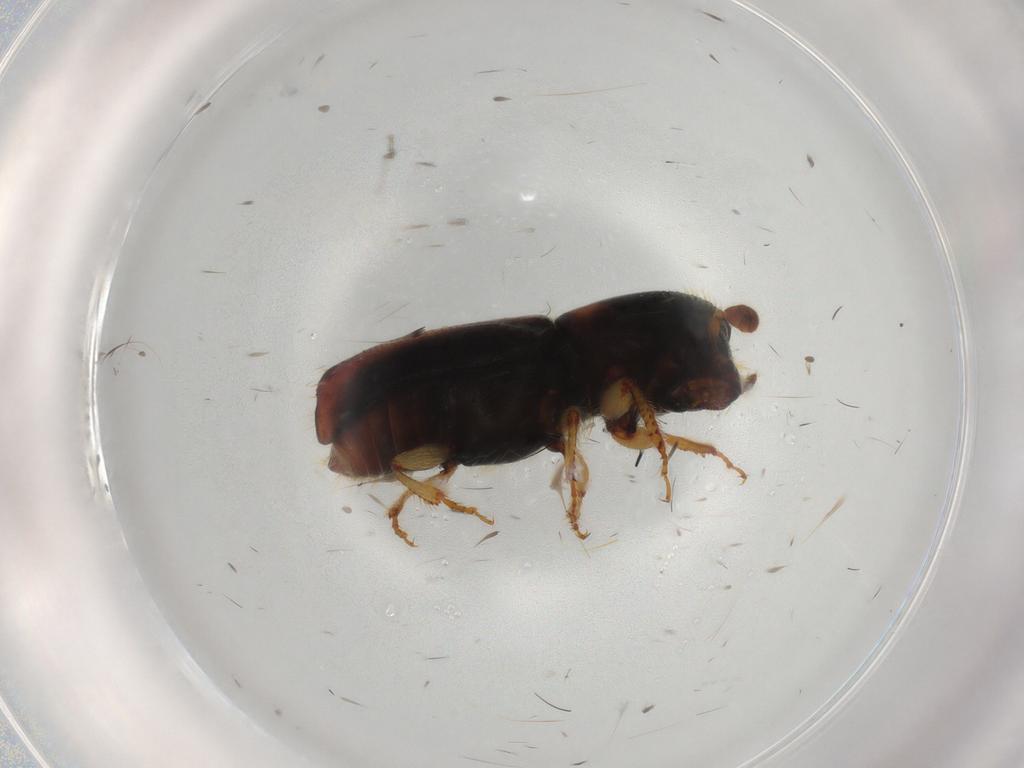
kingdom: Animalia
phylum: Arthropoda
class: Insecta
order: Coleoptera
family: Curculionidae
